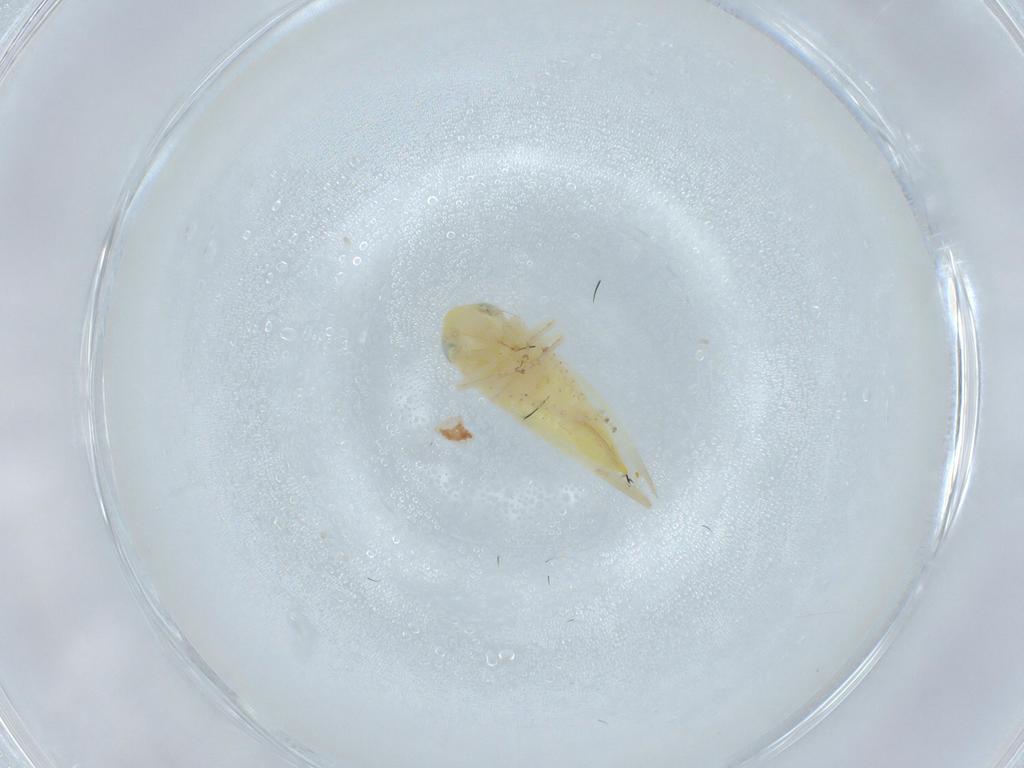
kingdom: Animalia
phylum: Arthropoda
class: Insecta
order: Hemiptera
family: Cicadellidae
